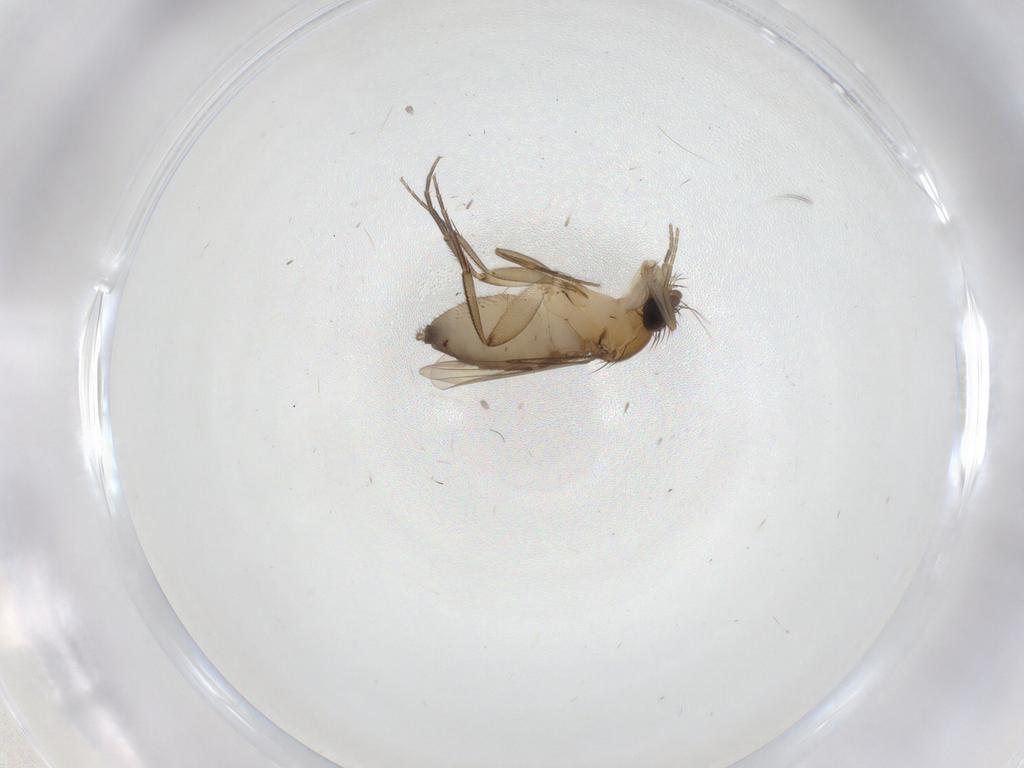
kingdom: Animalia
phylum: Arthropoda
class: Insecta
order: Diptera
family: Phoridae
